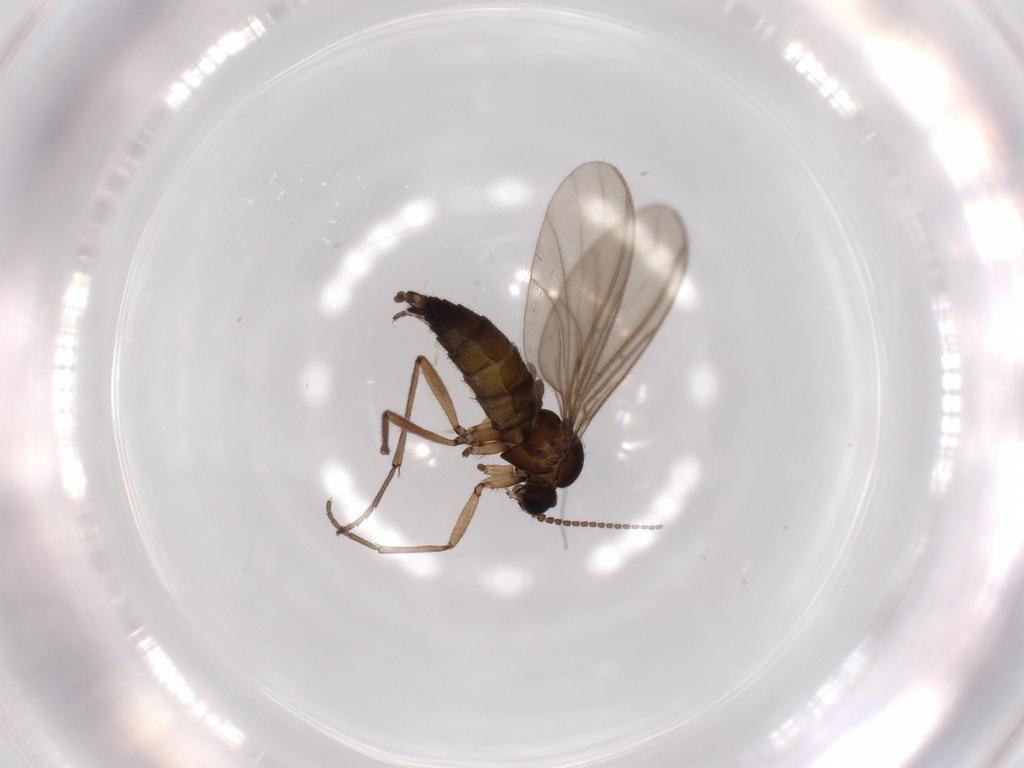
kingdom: Animalia
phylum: Arthropoda
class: Insecta
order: Diptera
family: Sciaridae
